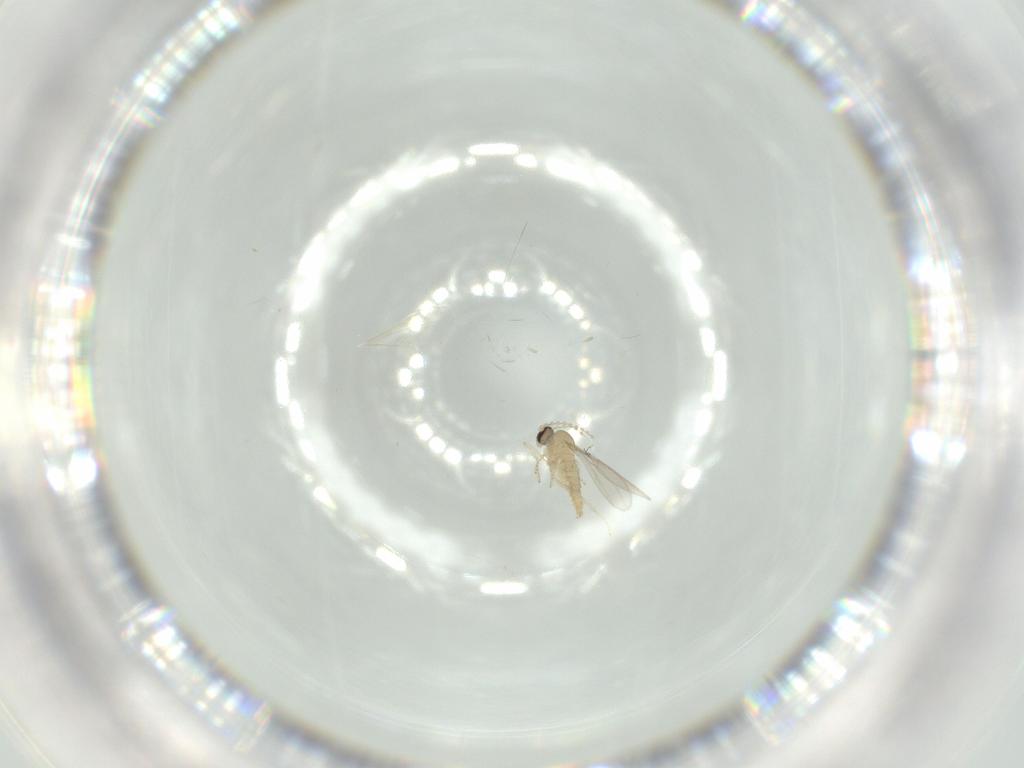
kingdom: Animalia
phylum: Arthropoda
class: Insecta
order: Diptera
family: Cecidomyiidae
